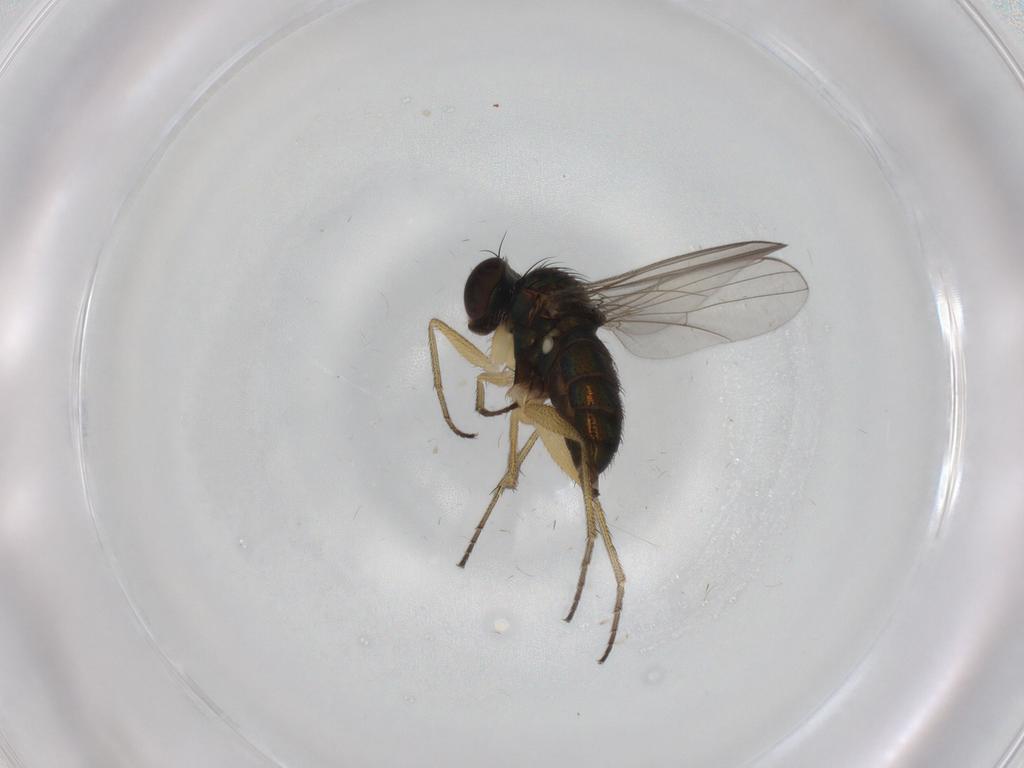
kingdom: Animalia
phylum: Arthropoda
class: Insecta
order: Diptera
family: Dolichopodidae
